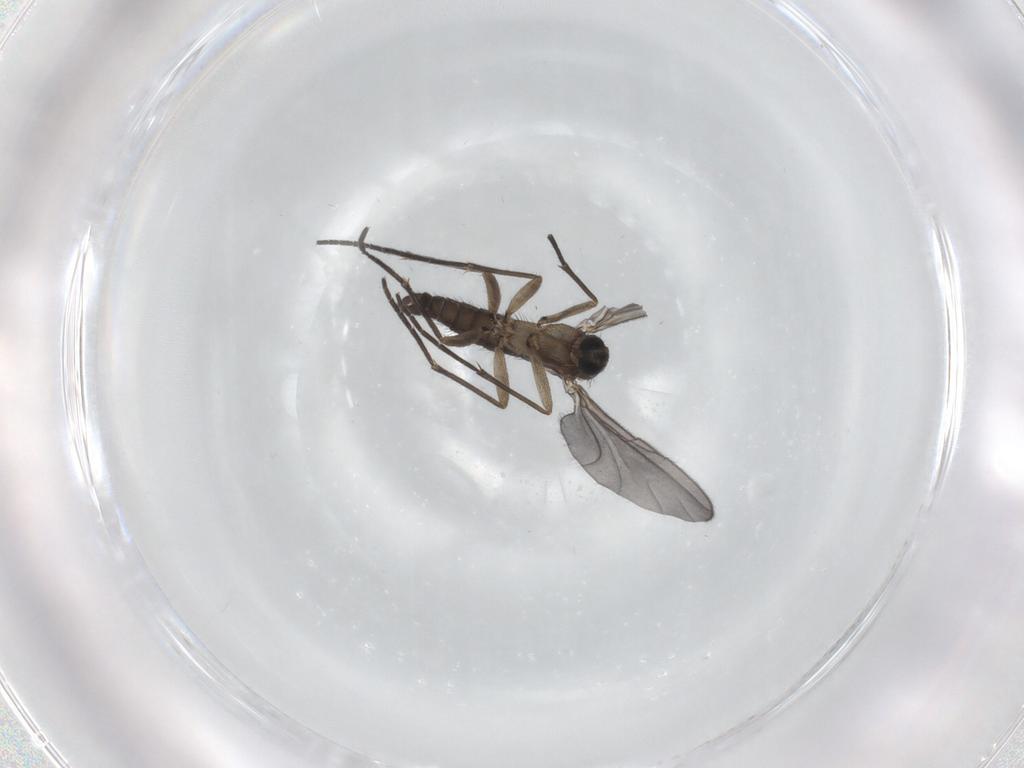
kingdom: Animalia
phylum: Arthropoda
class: Insecta
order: Diptera
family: Sciaridae
